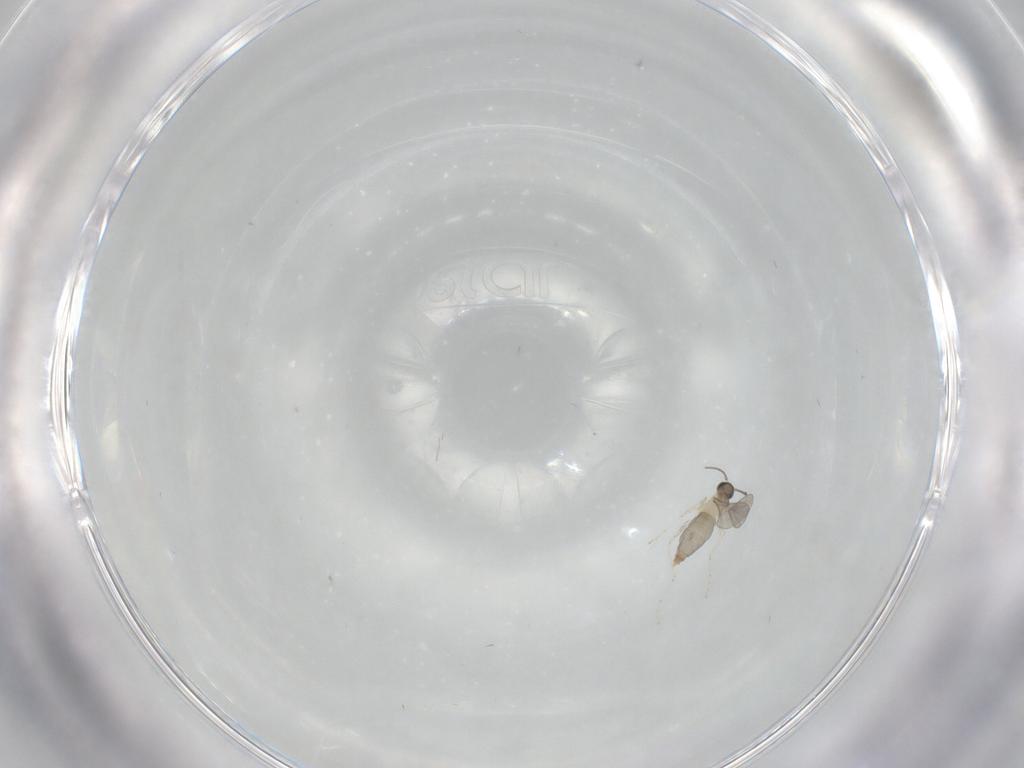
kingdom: Animalia
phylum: Arthropoda
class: Insecta
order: Diptera
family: Cecidomyiidae
